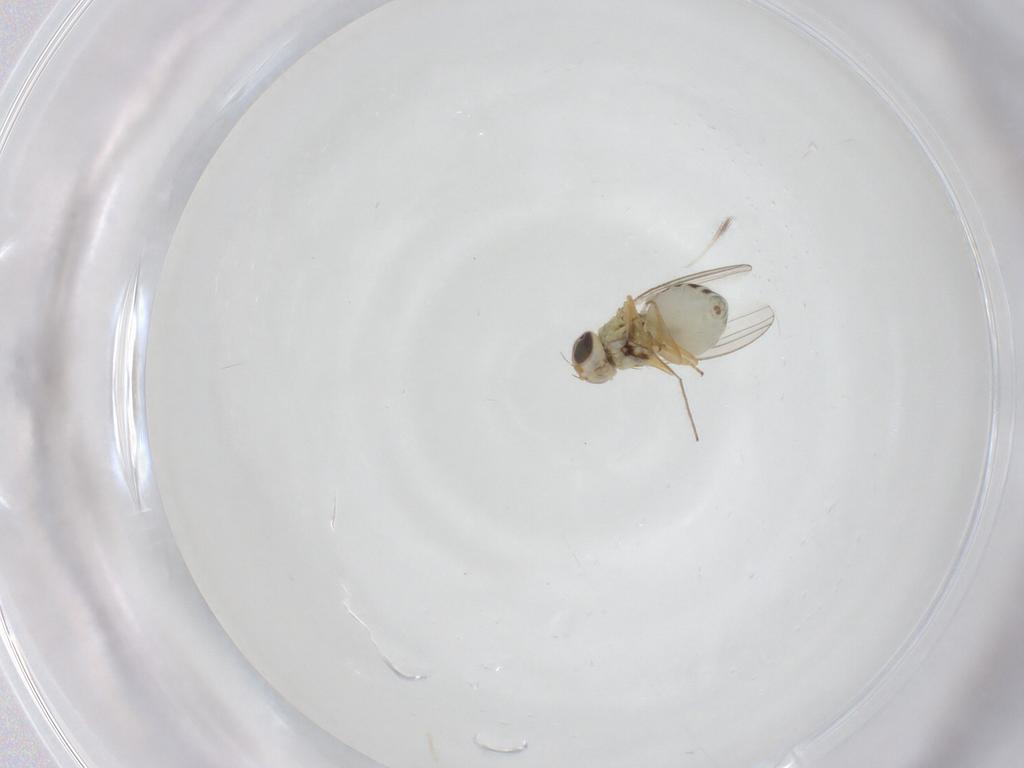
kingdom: Animalia
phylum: Arthropoda
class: Insecta
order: Diptera
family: Chyromyidae
